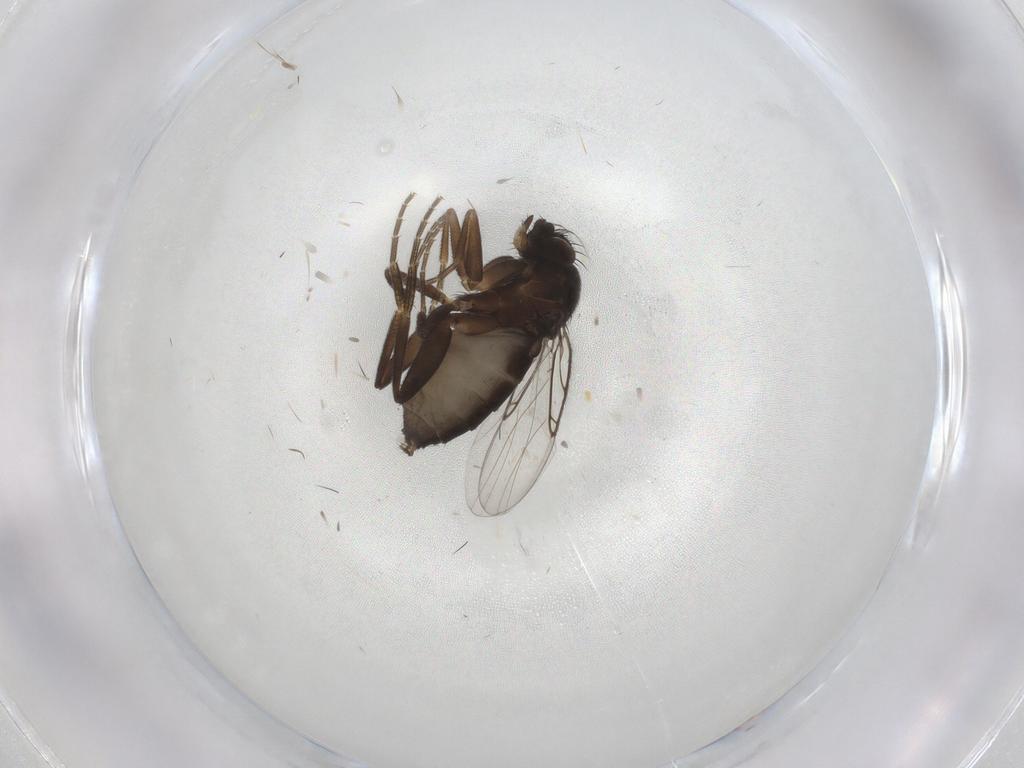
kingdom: Animalia
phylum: Arthropoda
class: Insecta
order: Diptera
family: Phoridae
